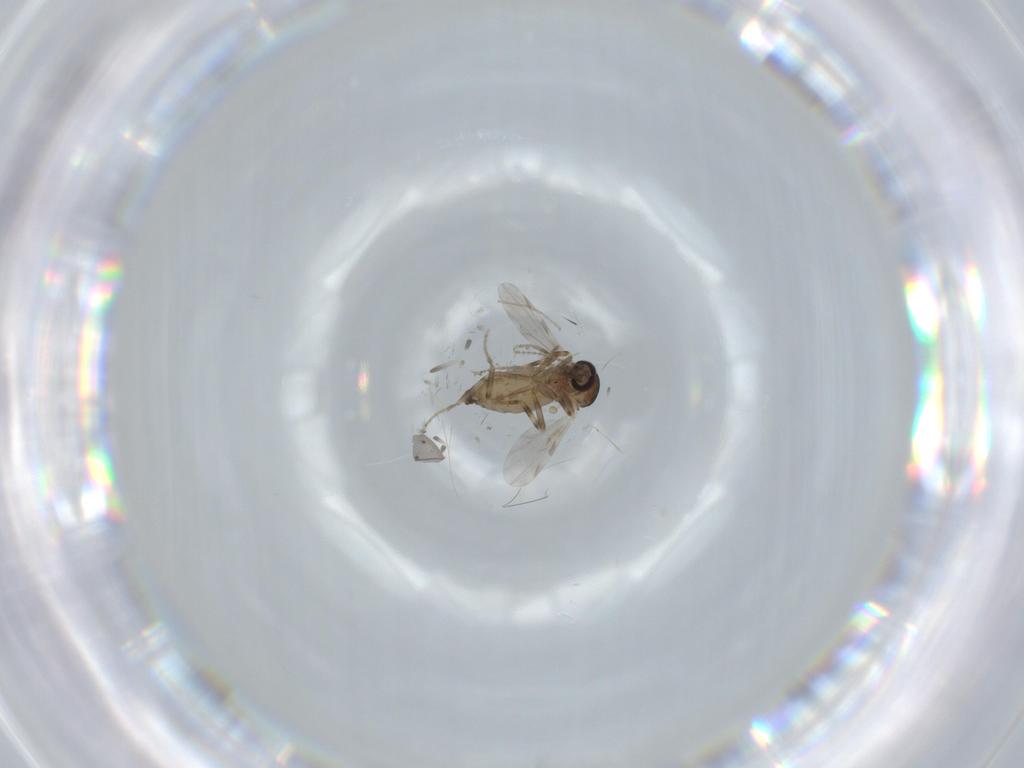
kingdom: Animalia
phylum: Arthropoda
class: Insecta
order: Diptera
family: Ceratopogonidae
